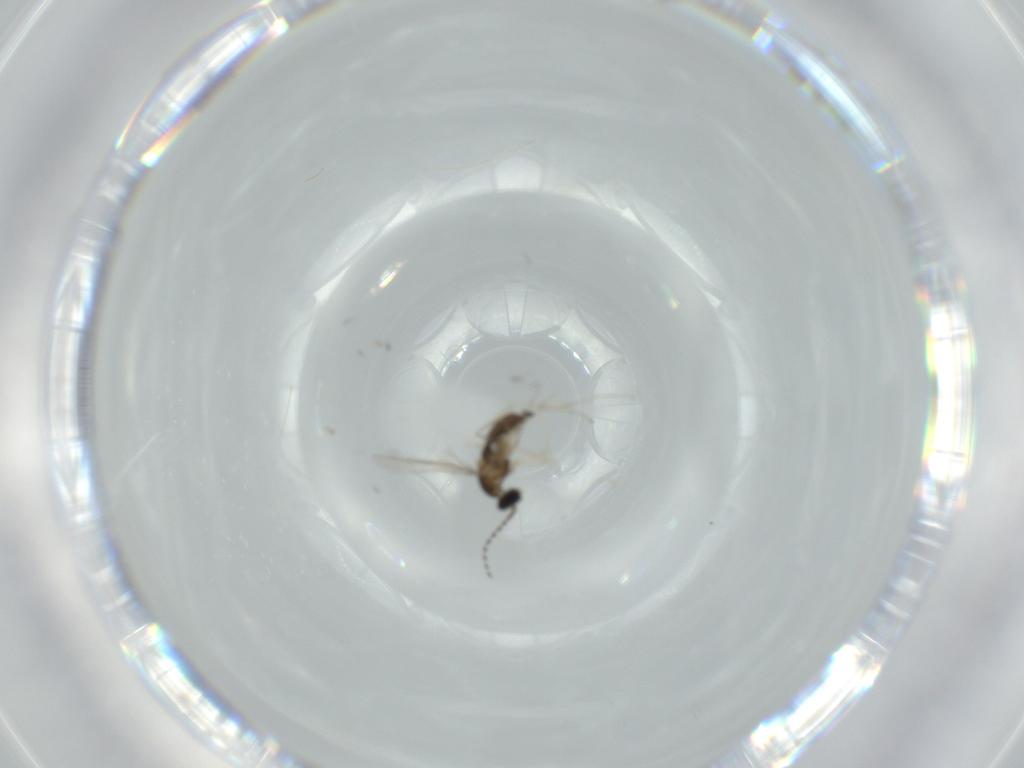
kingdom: Animalia
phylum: Arthropoda
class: Insecta
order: Diptera
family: Cecidomyiidae
